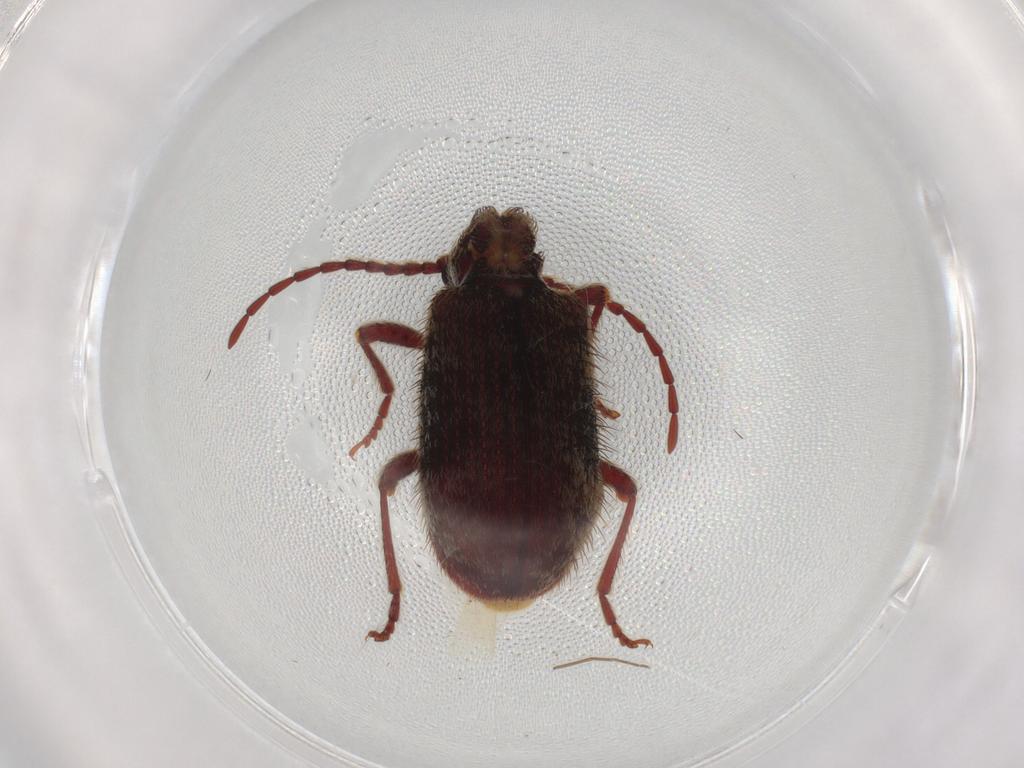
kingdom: Animalia
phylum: Arthropoda
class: Insecta
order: Coleoptera
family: Ptinidae
